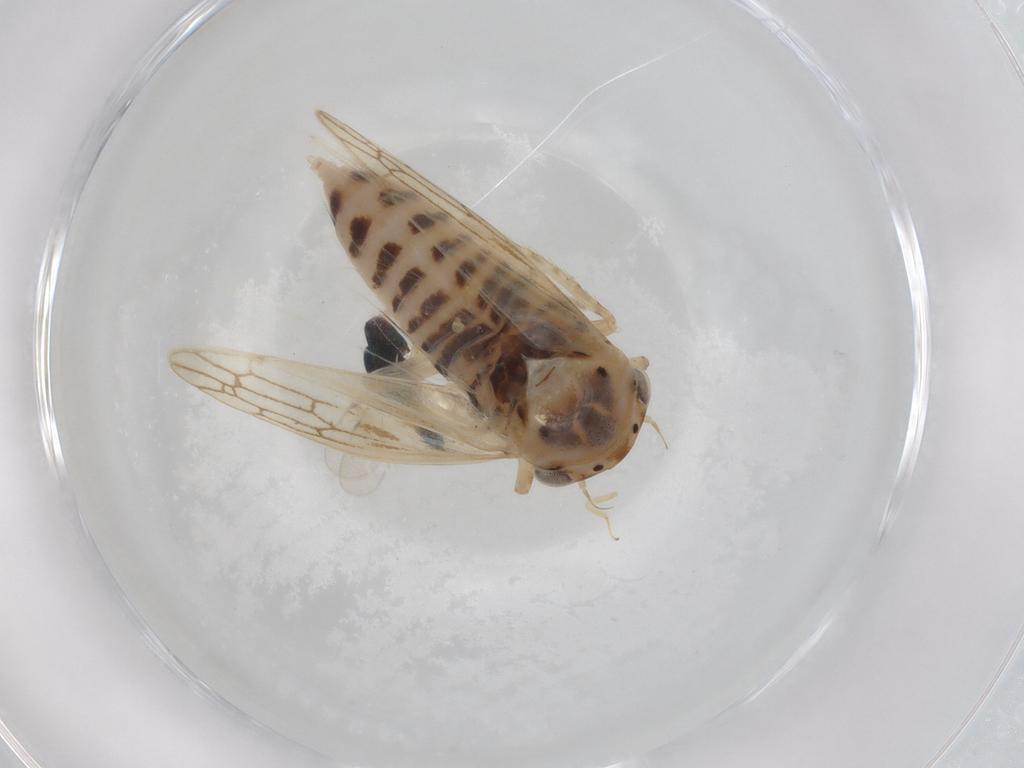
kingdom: Animalia
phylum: Arthropoda
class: Insecta
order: Hemiptera
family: Cicadellidae
